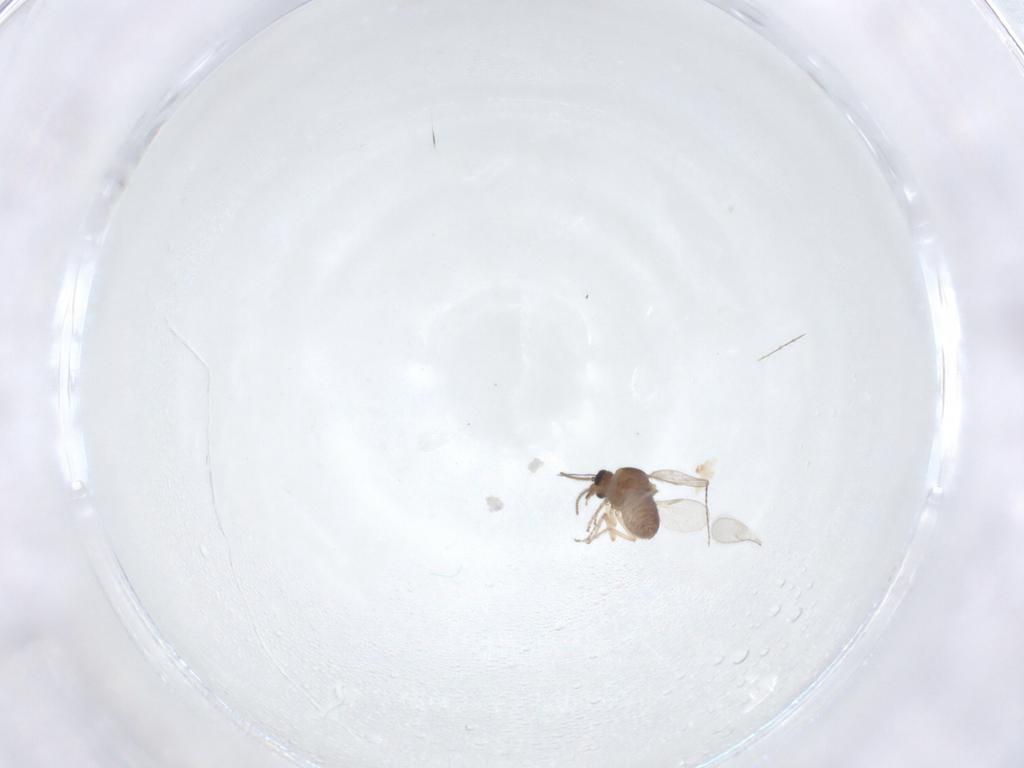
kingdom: Animalia
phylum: Arthropoda
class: Insecta
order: Diptera
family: Ceratopogonidae
